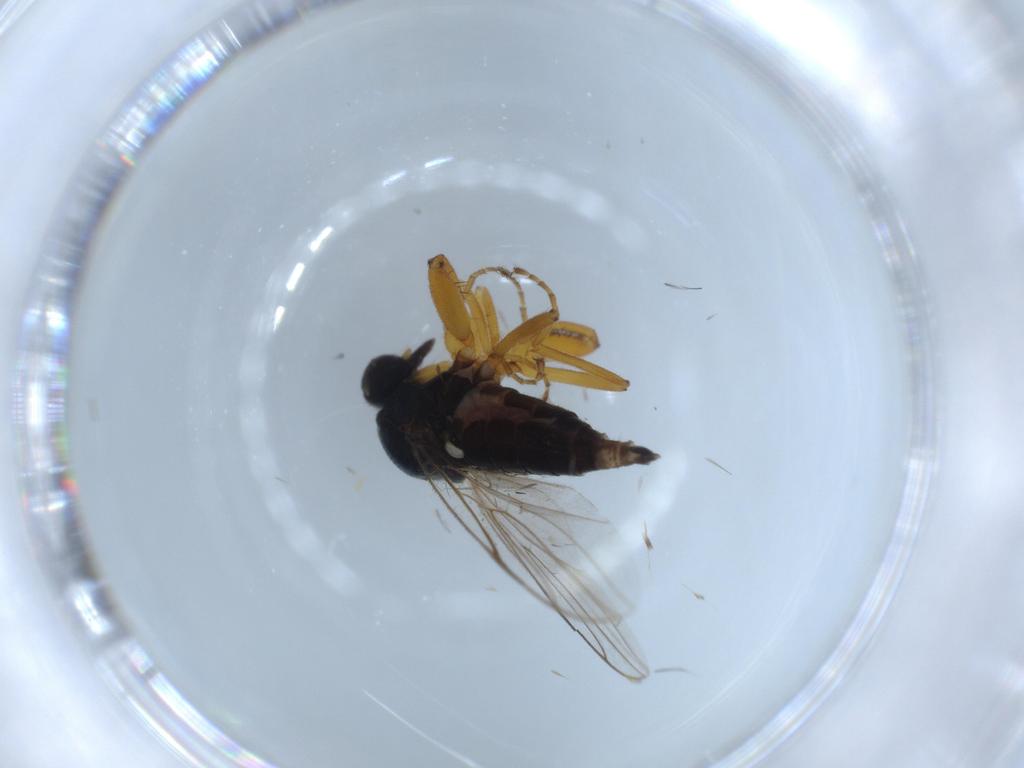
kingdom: Animalia
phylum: Arthropoda
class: Insecta
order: Diptera
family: Hybotidae
